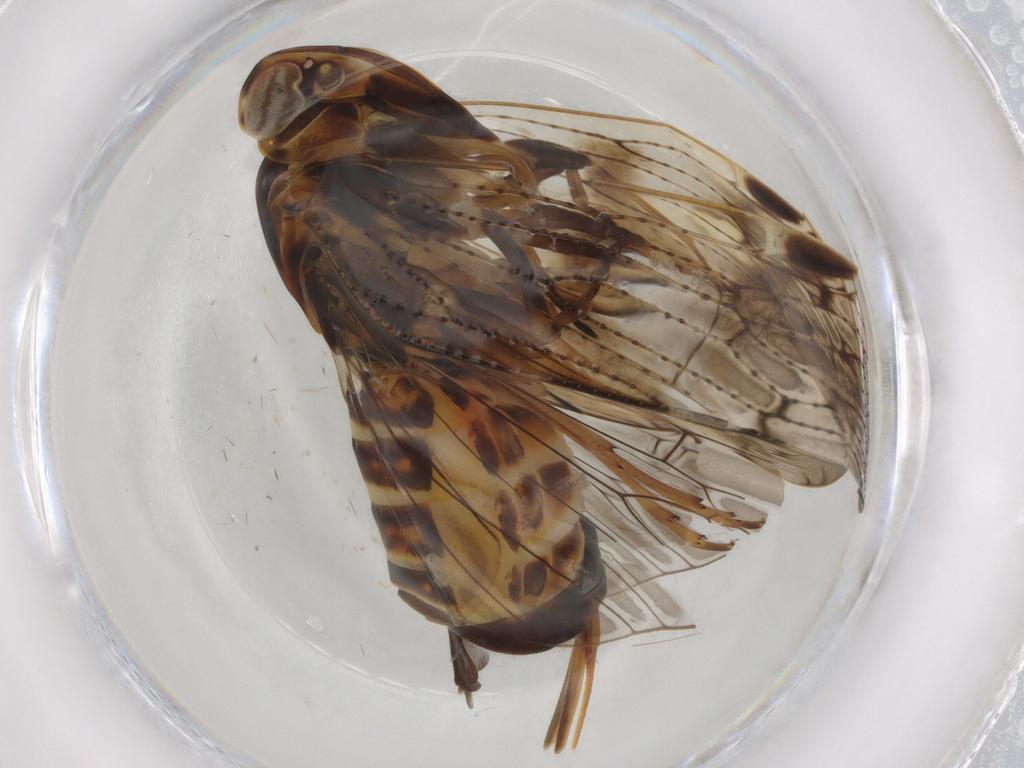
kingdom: Animalia
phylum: Arthropoda
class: Insecta
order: Hemiptera
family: Cixiidae
